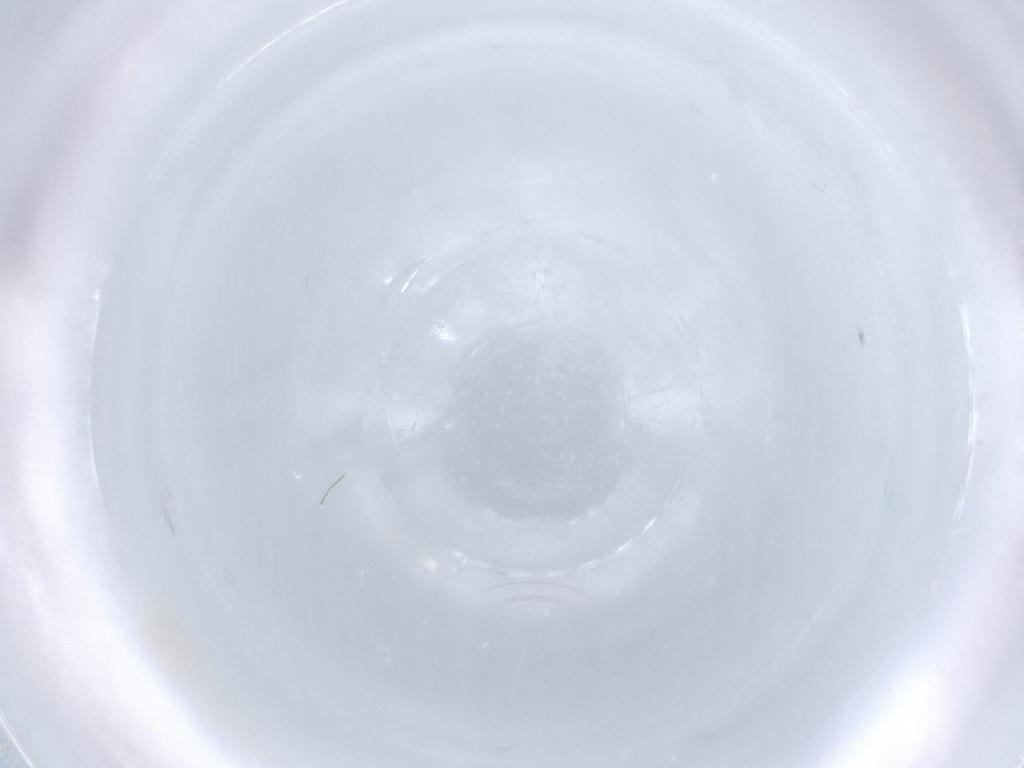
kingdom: Animalia
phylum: Arthropoda
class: Insecta
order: Diptera
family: Chironomidae
